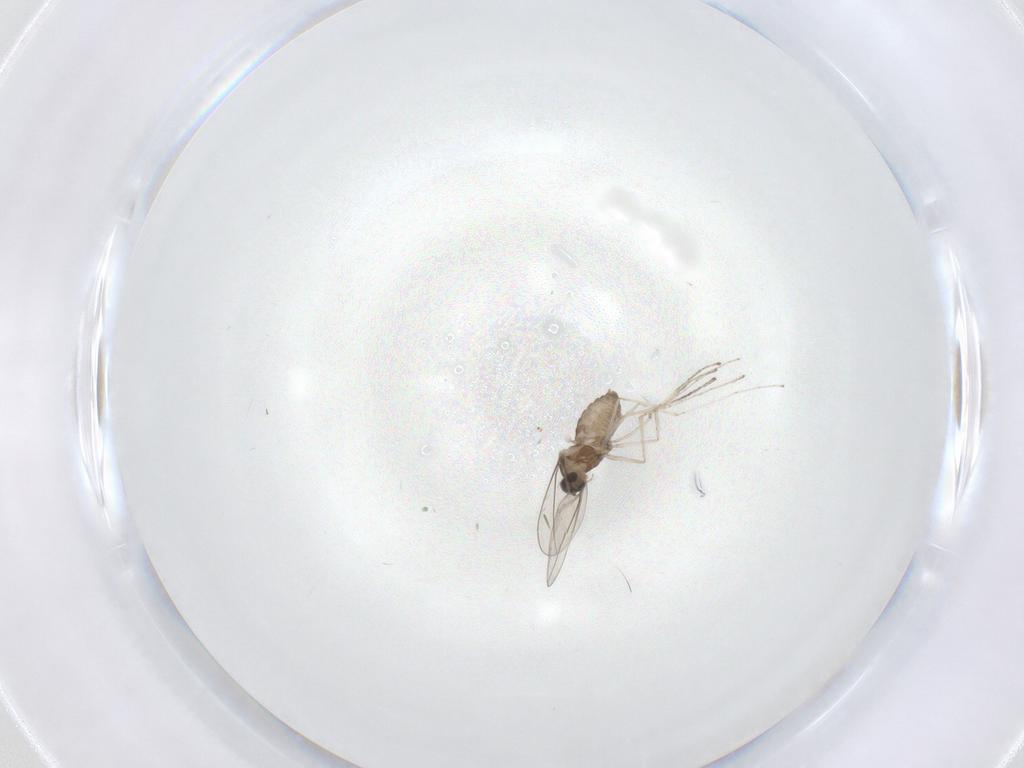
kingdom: Animalia
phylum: Arthropoda
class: Insecta
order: Diptera
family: Cecidomyiidae
